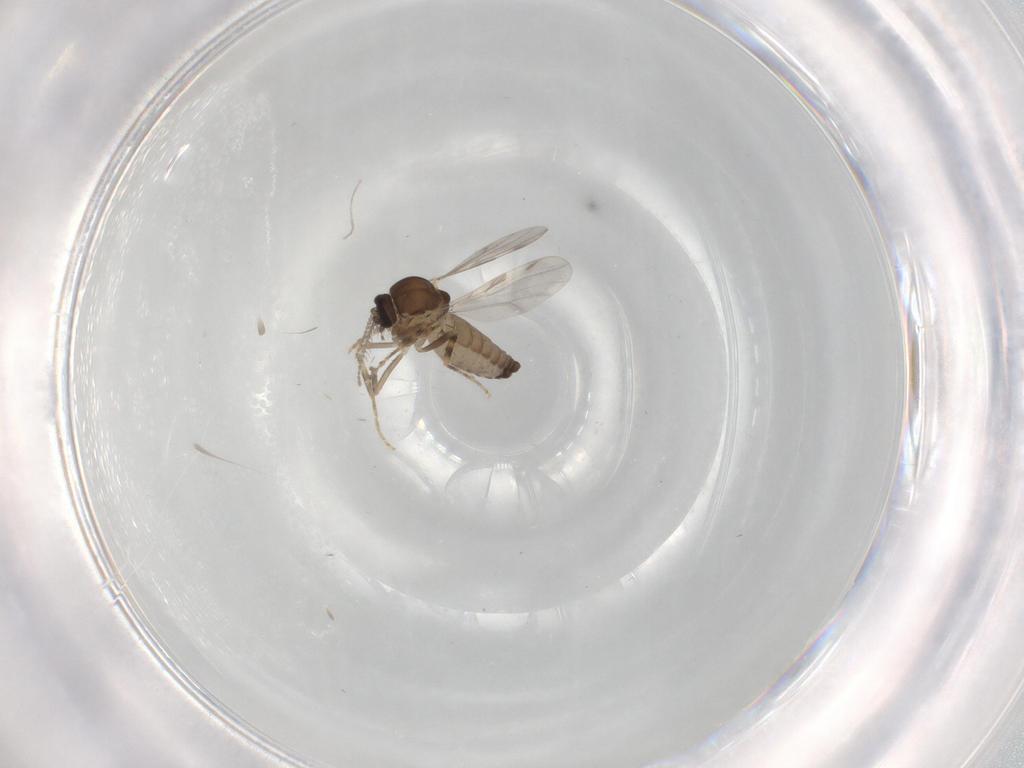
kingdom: Animalia
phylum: Arthropoda
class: Insecta
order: Diptera
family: Ceratopogonidae
